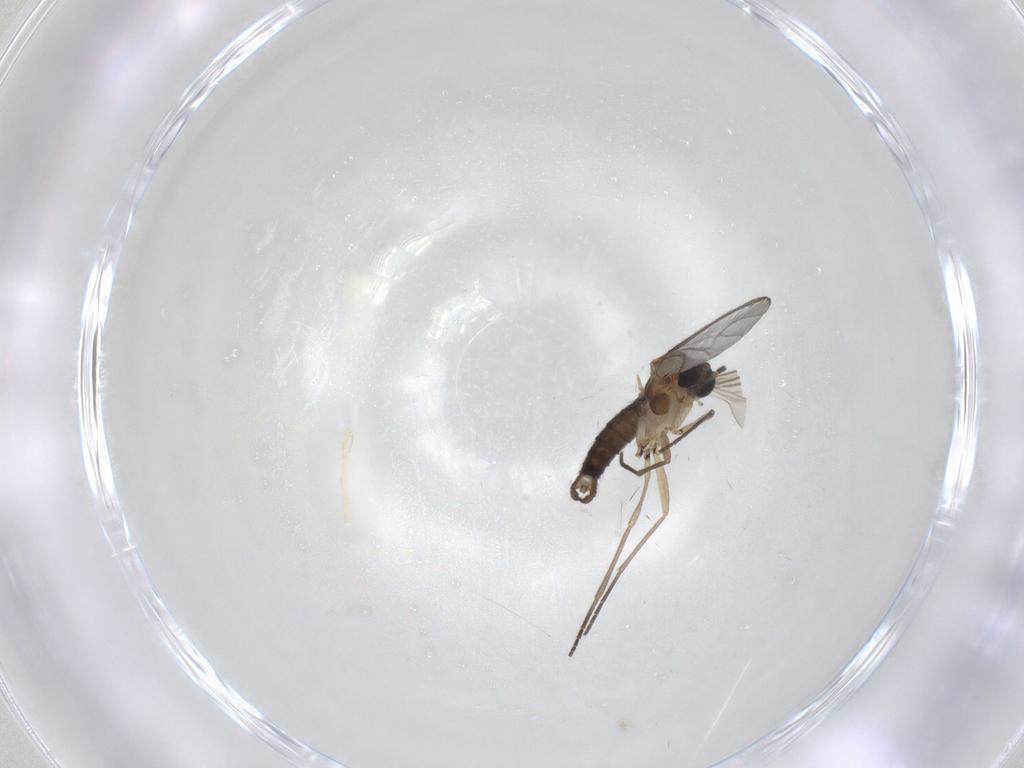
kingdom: Animalia
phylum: Arthropoda
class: Insecta
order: Diptera
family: Sciaridae
